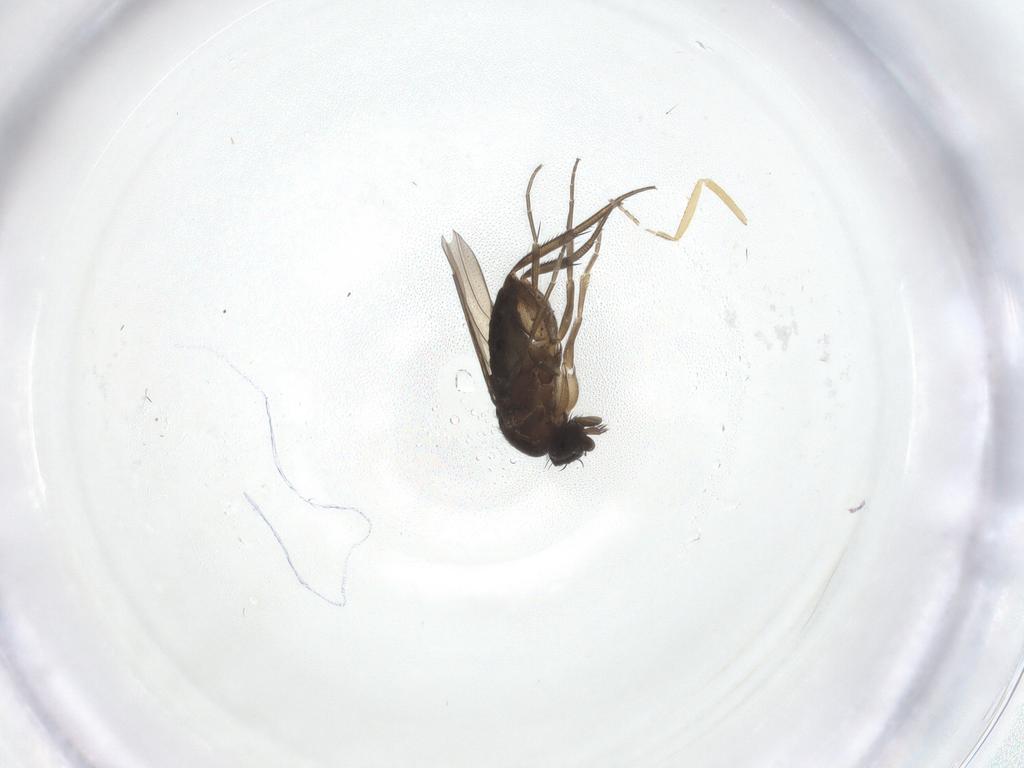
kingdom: Animalia
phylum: Arthropoda
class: Insecta
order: Diptera
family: Phoridae
